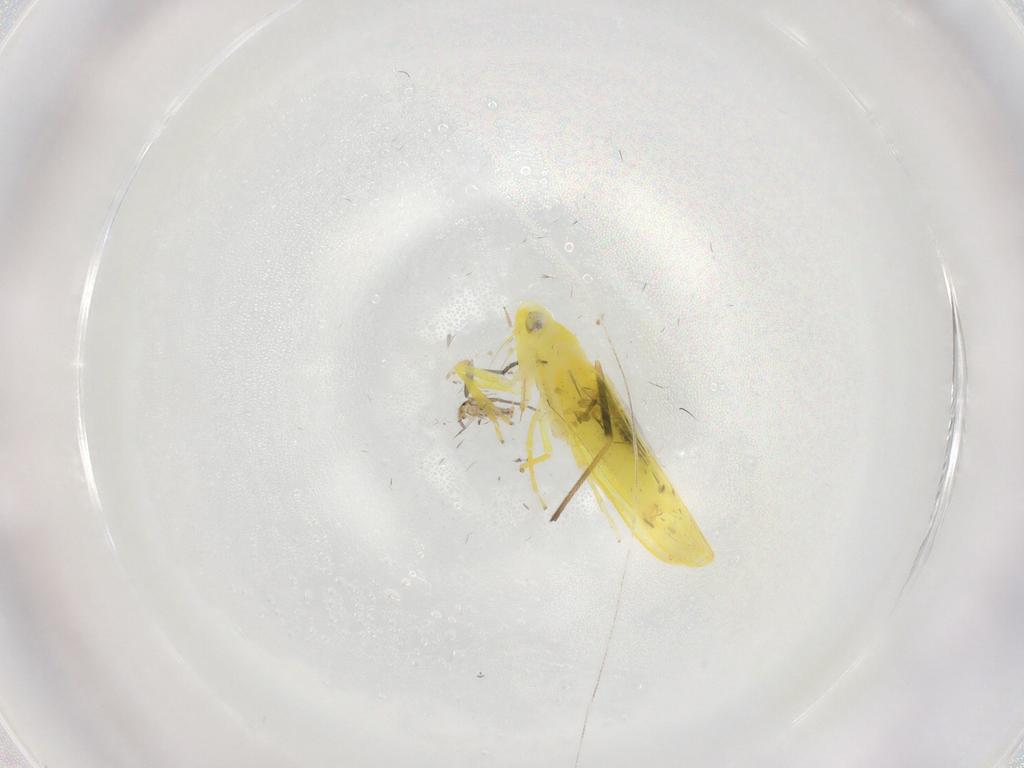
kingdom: Animalia
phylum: Arthropoda
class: Insecta
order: Hemiptera
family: Cicadellidae
